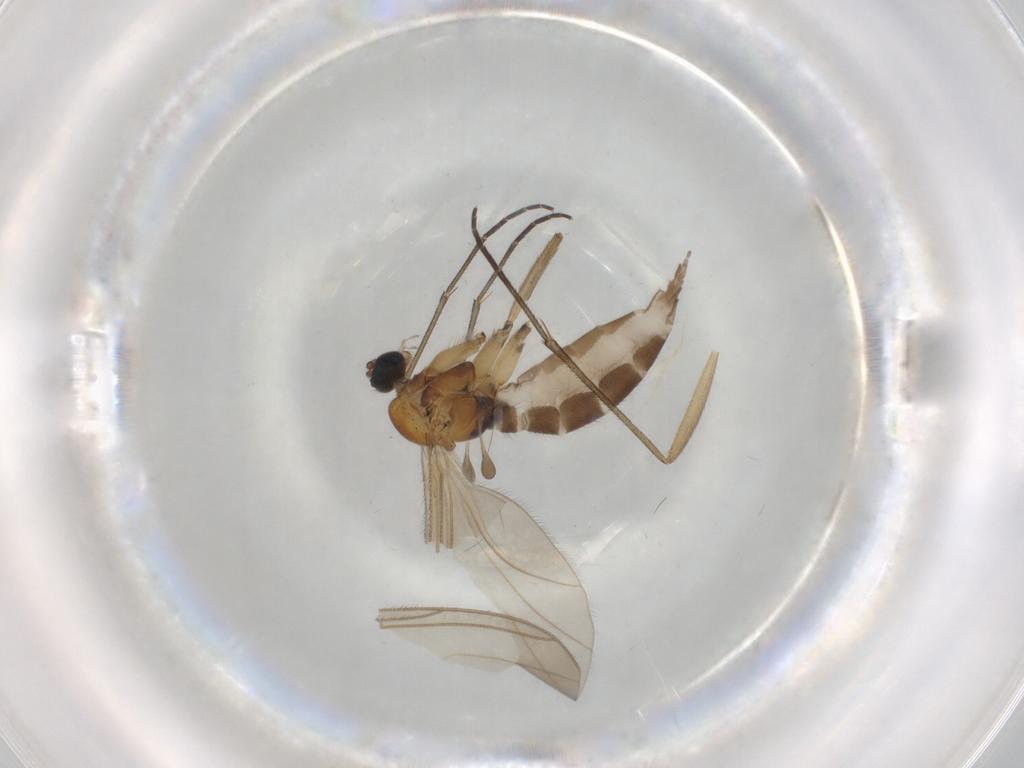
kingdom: Animalia
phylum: Arthropoda
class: Insecta
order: Diptera
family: Sciaridae
